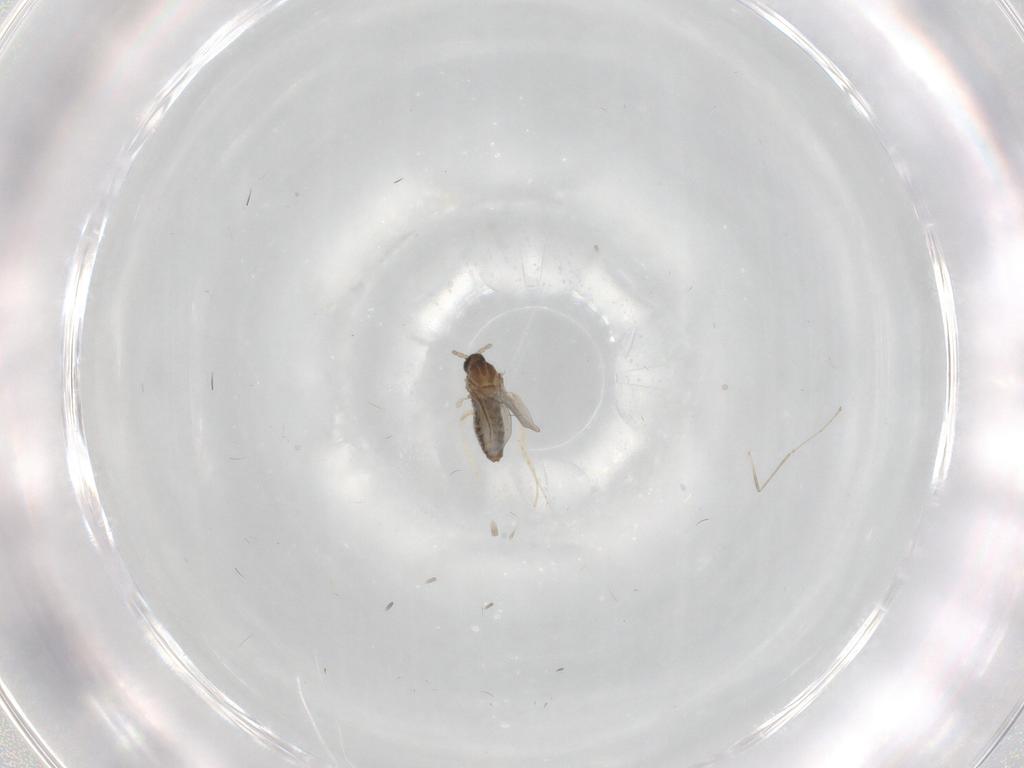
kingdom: Animalia
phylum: Arthropoda
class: Insecta
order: Diptera
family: Cecidomyiidae
